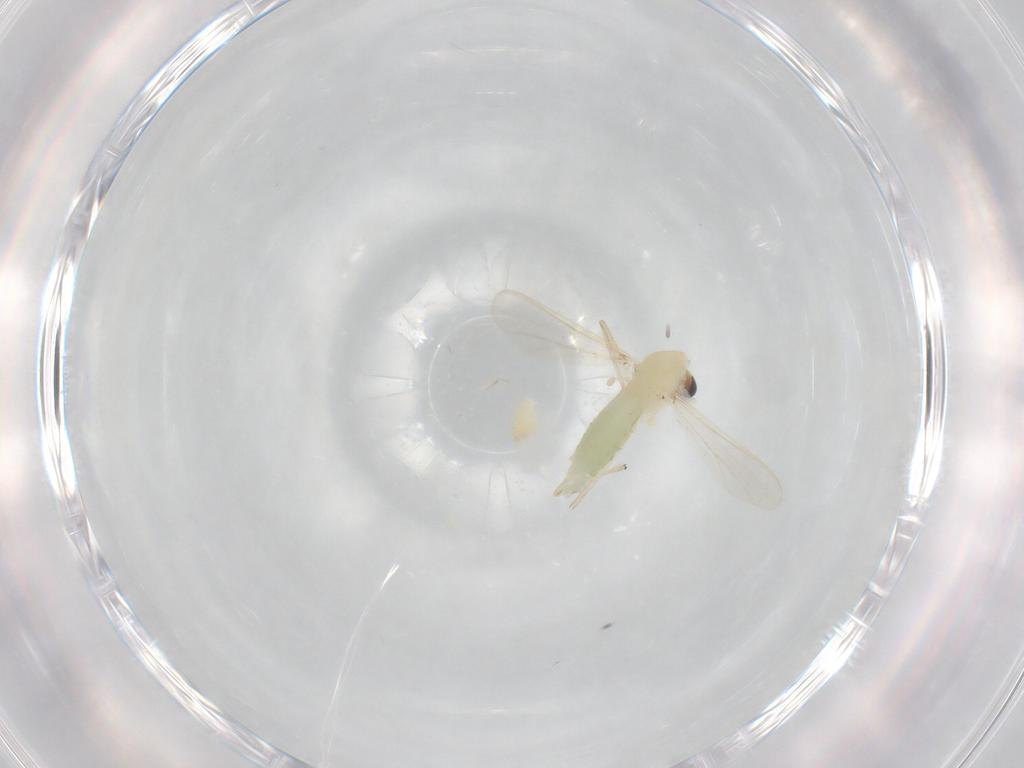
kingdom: Animalia
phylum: Arthropoda
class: Insecta
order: Diptera
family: Chironomidae
